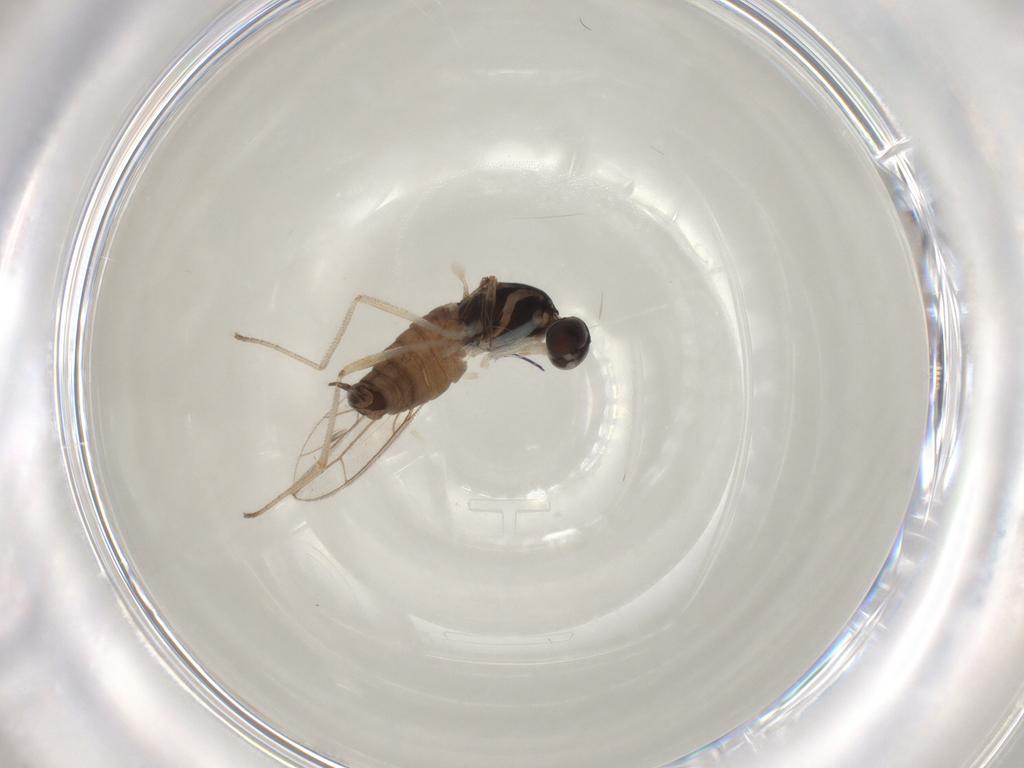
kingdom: Animalia
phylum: Arthropoda
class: Insecta
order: Diptera
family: Empididae
